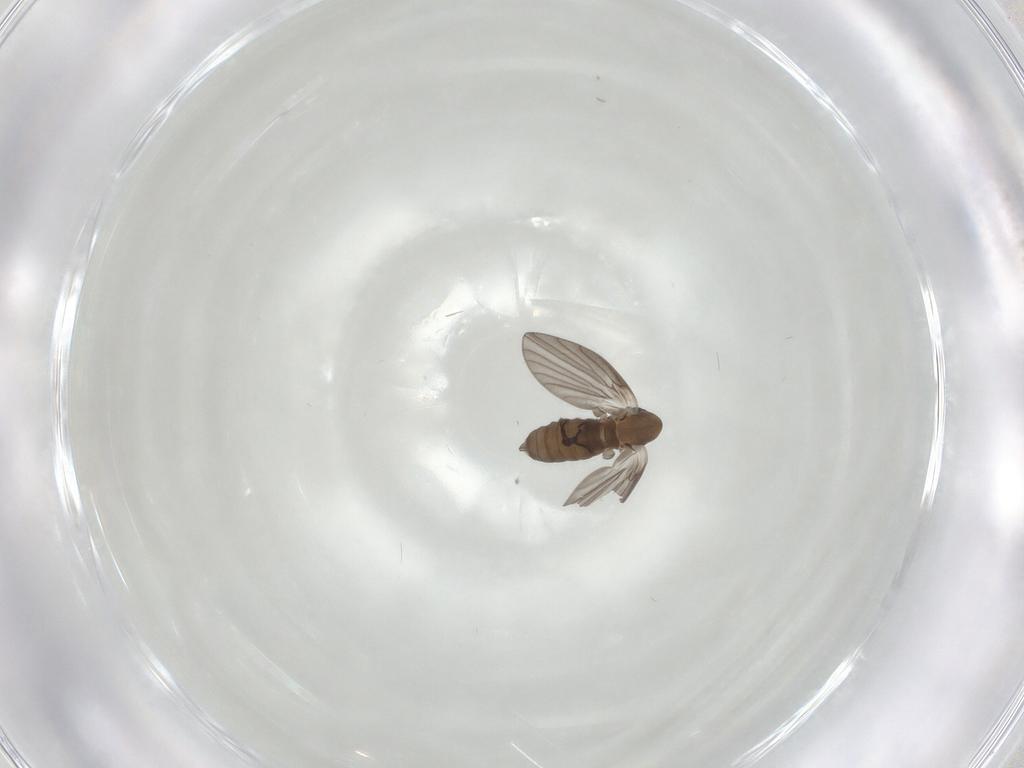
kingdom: Animalia
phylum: Arthropoda
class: Insecta
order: Diptera
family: Psychodidae
